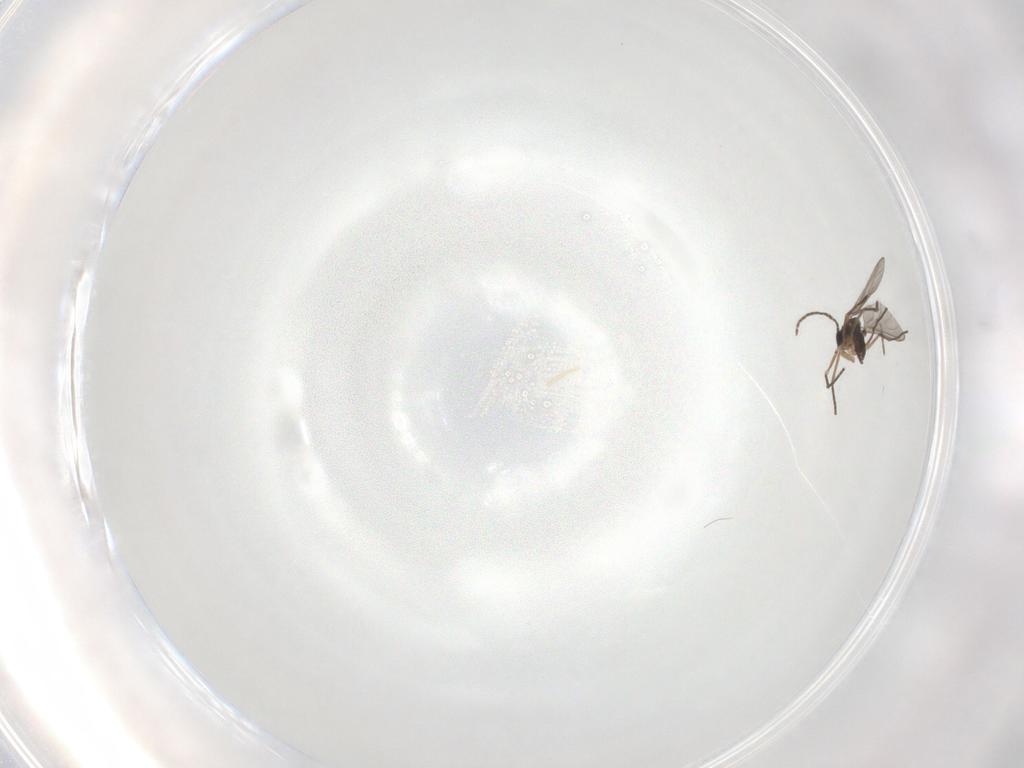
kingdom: Animalia
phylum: Arthropoda
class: Insecta
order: Diptera
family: Sciaridae
